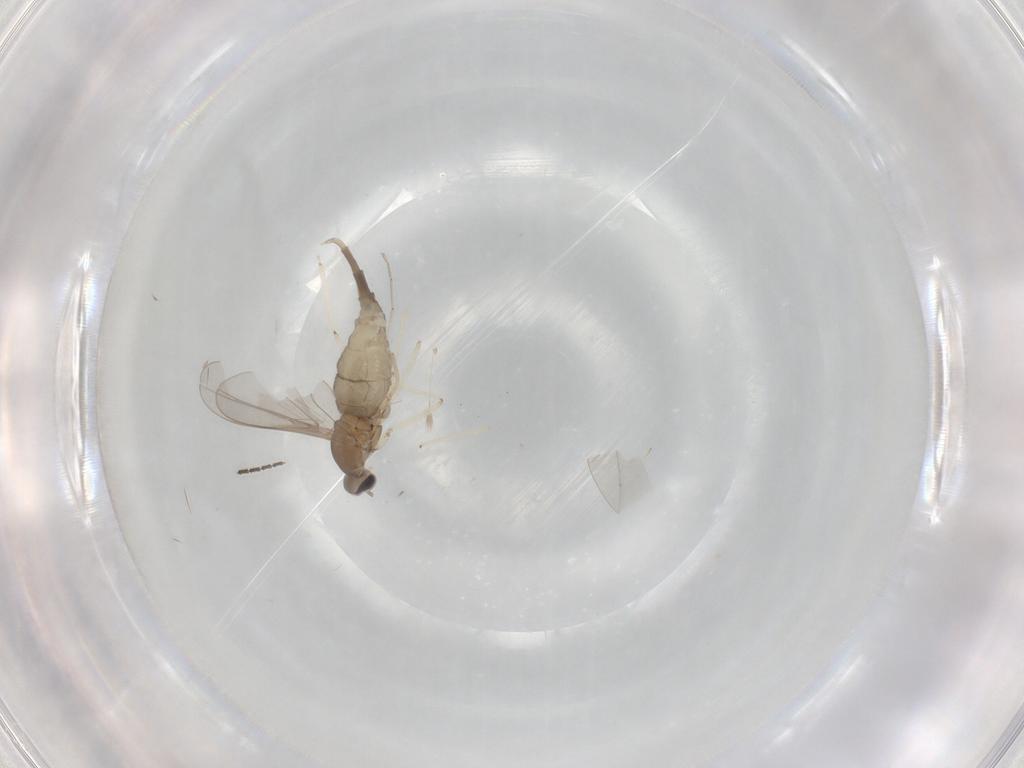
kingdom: Animalia
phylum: Arthropoda
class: Insecta
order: Diptera
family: Cecidomyiidae
